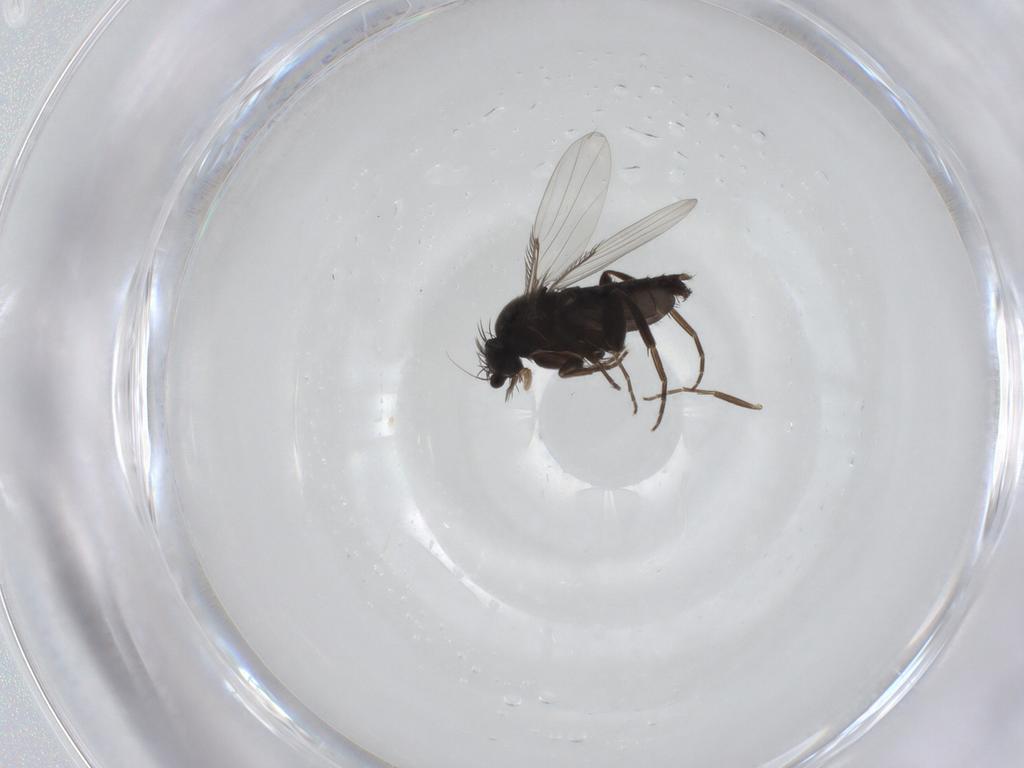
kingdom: Animalia
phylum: Arthropoda
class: Insecta
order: Diptera
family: Phoridae
